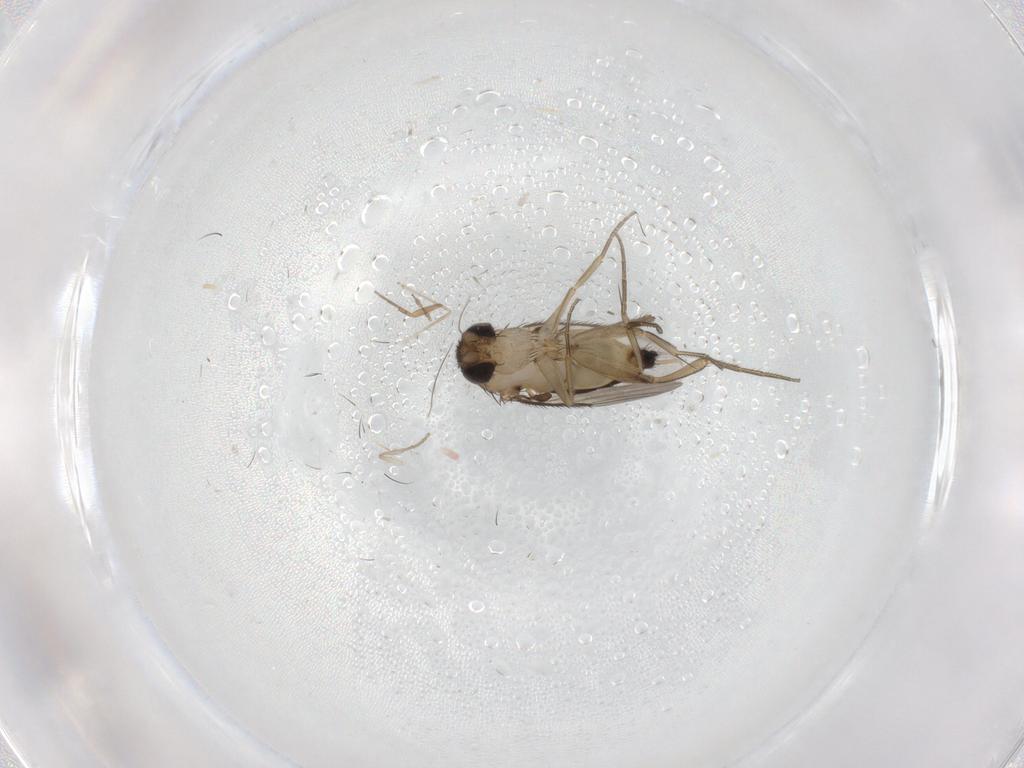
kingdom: Animalia
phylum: Arthropoda
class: Insecta
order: Diptera
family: Phoridae
